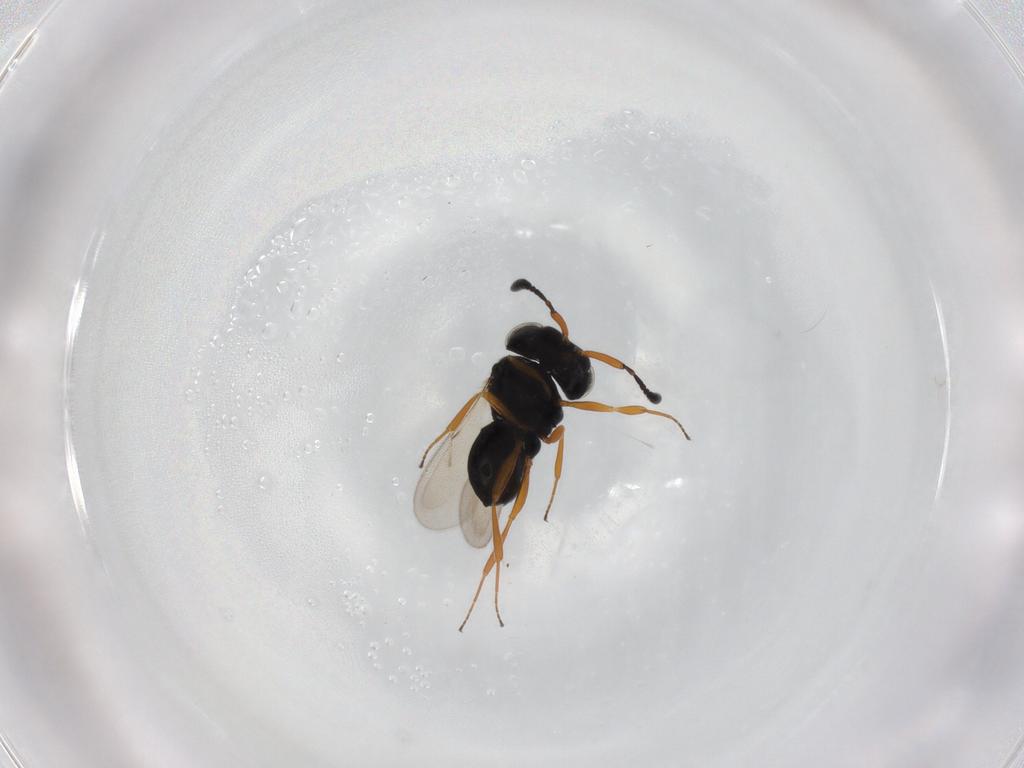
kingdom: Animalia
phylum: Arthropoda
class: Insecta
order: Hymenoptera
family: Scelionidae
